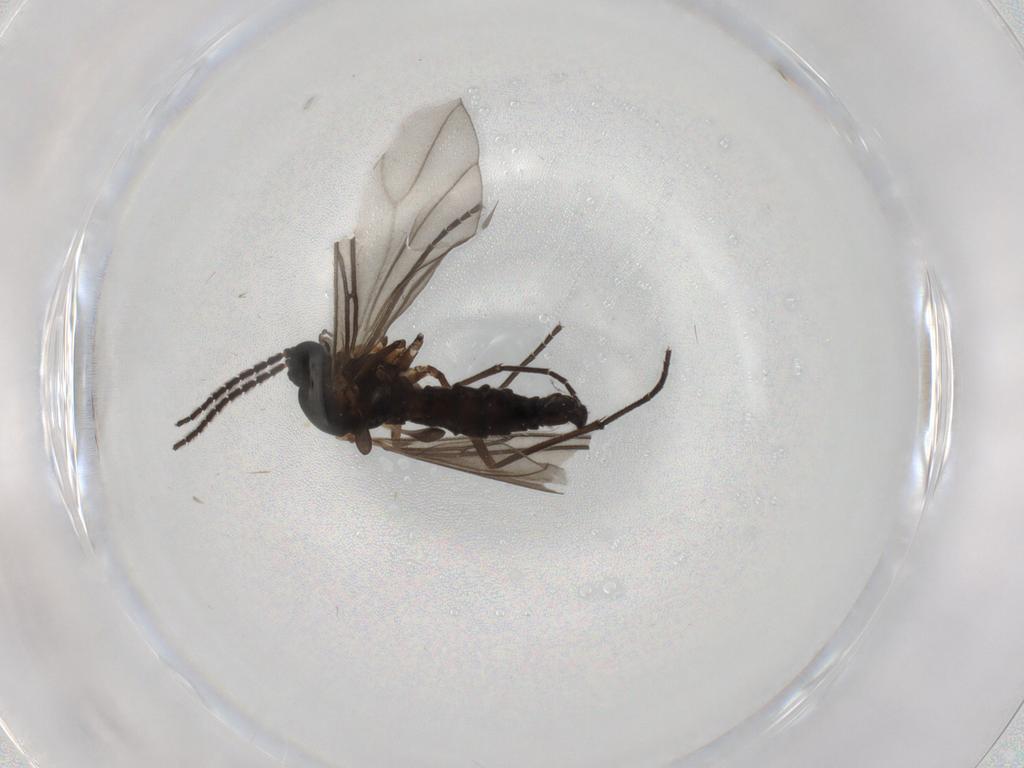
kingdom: Animalia
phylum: Arthropoda
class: Insecta
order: Diptera
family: Sciaridae
